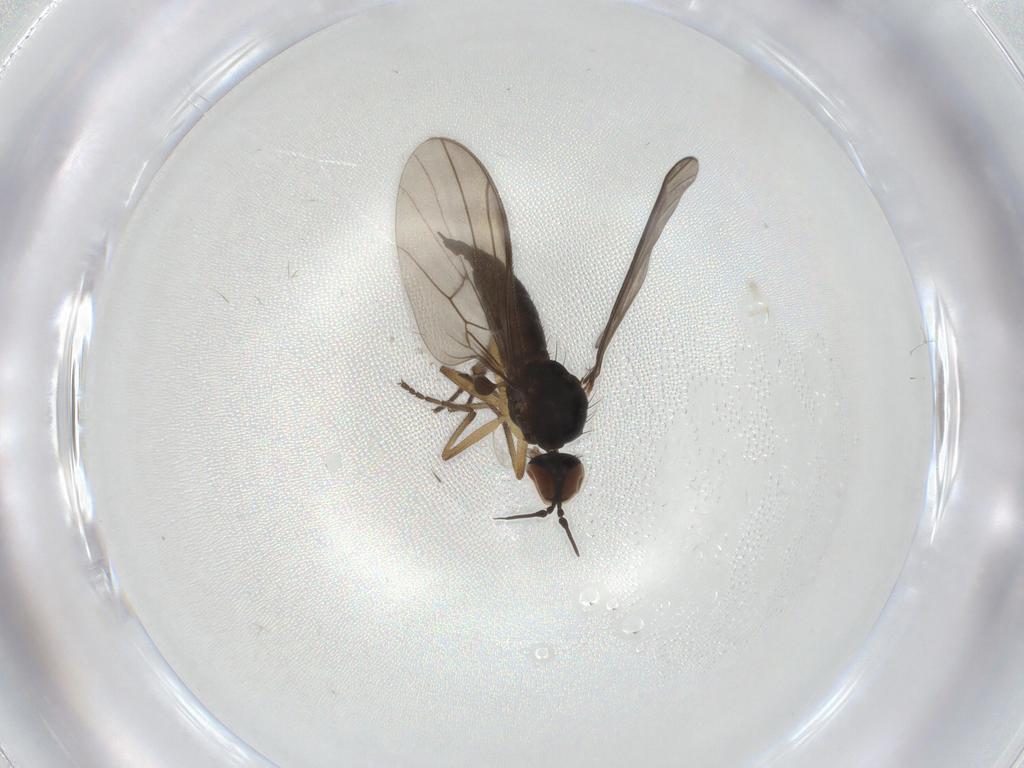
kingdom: Animalia
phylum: Arthropoda
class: Insecta
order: Diptera
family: Empididae
